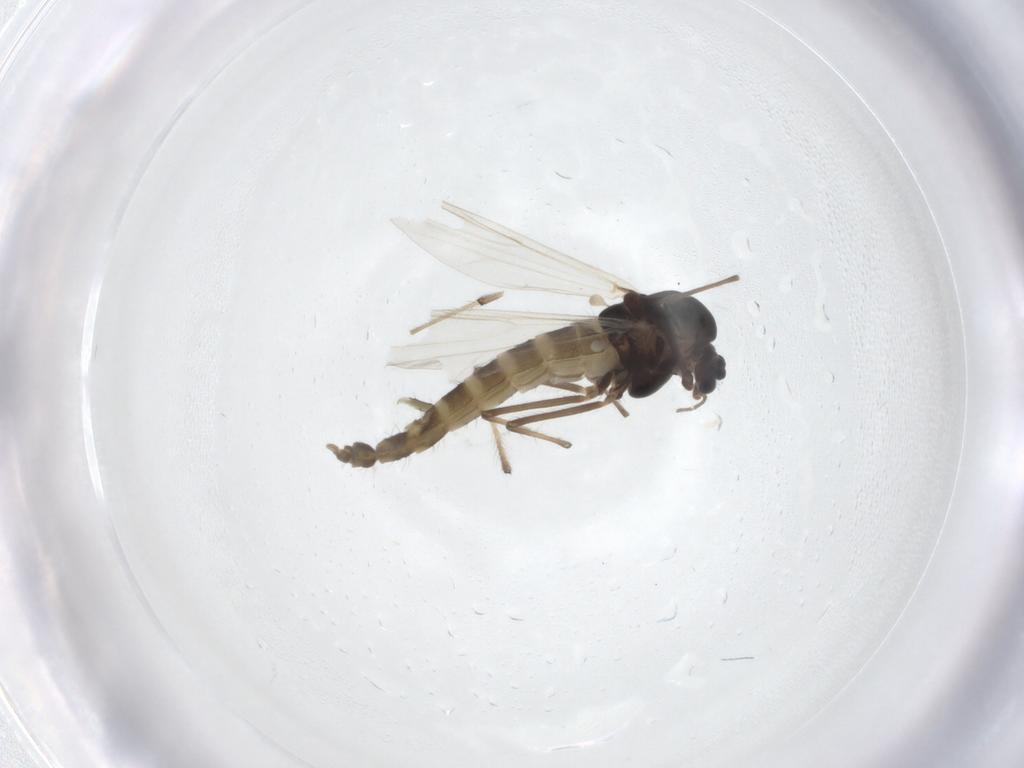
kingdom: Animalia
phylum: Arthropoda
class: Insecta
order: Diptera
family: Chironomidae
